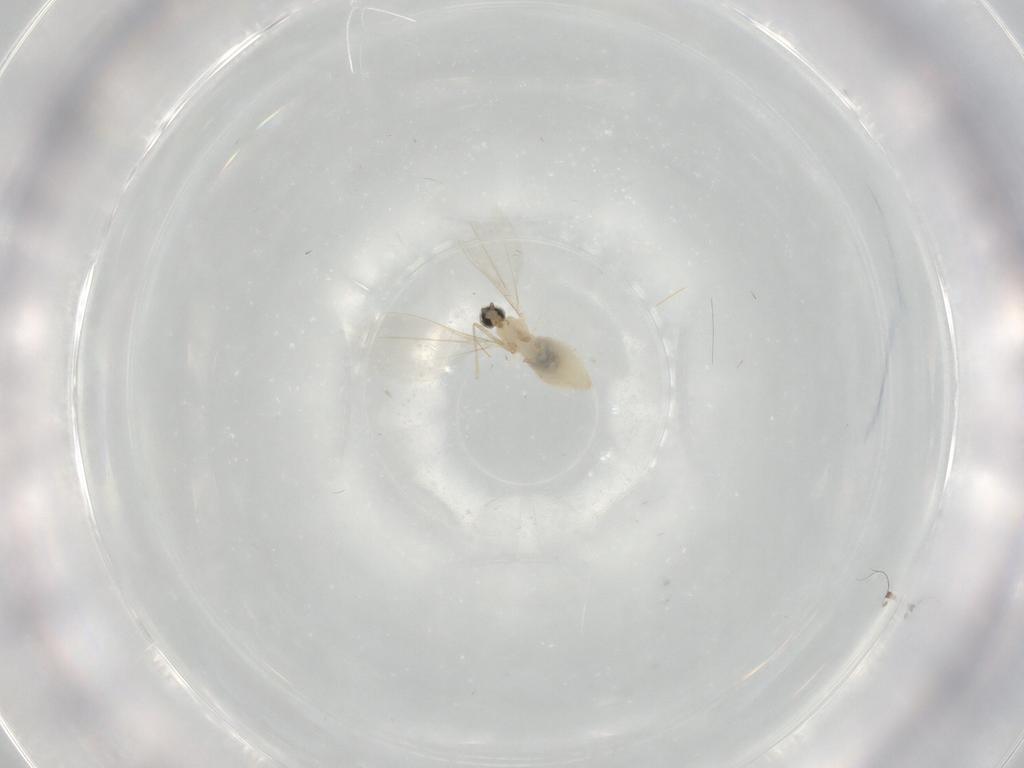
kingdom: Animalia
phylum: Arthropoda
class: Insecta
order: Diptera
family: Cecidomyiidae
